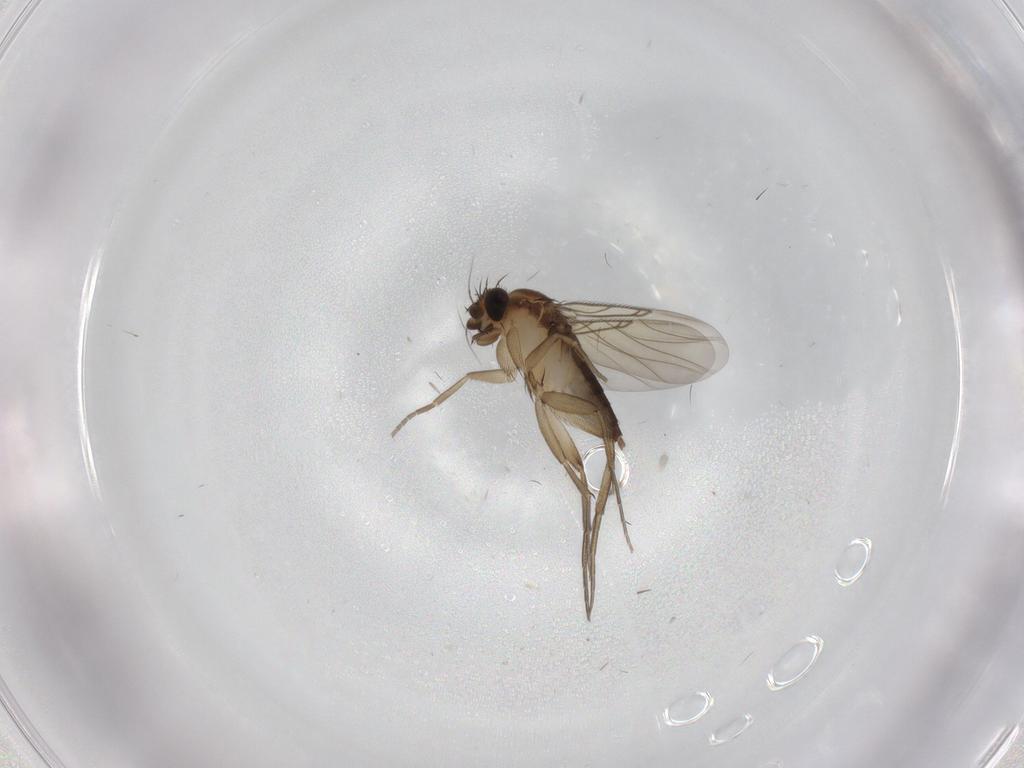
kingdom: Animalia
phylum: Arthropoda
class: Insecta
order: Diptera
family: Phoridae
